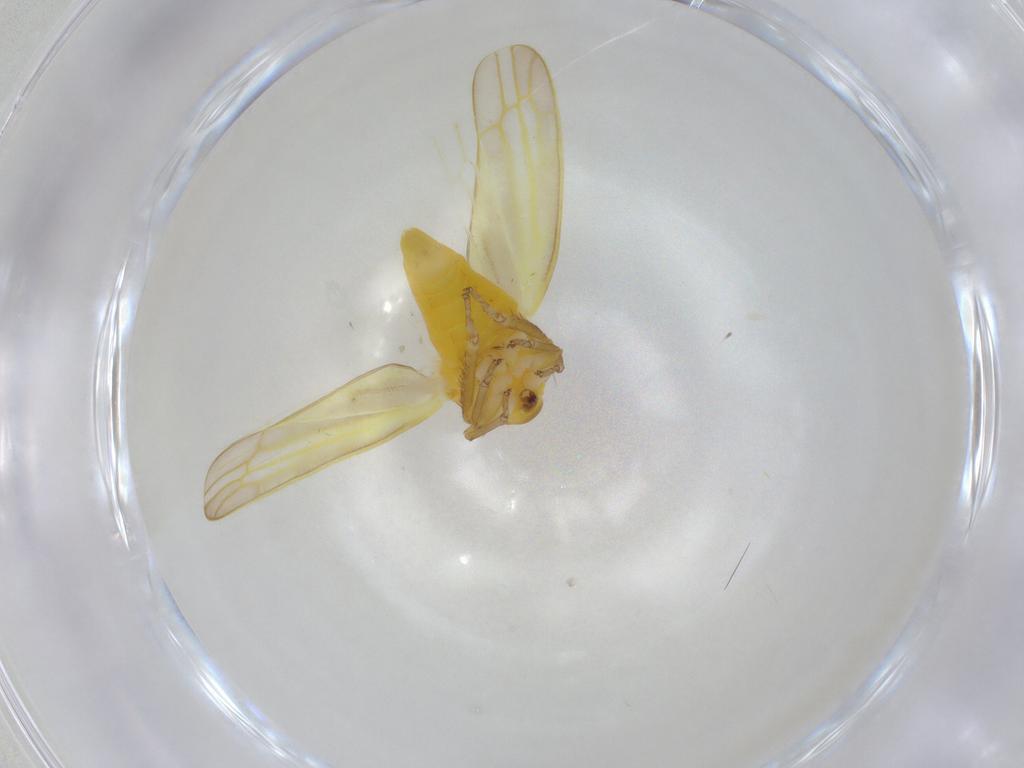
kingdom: Animalia
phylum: Arthropoda
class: Insecta
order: Hemiptera
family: Cicadellidae
